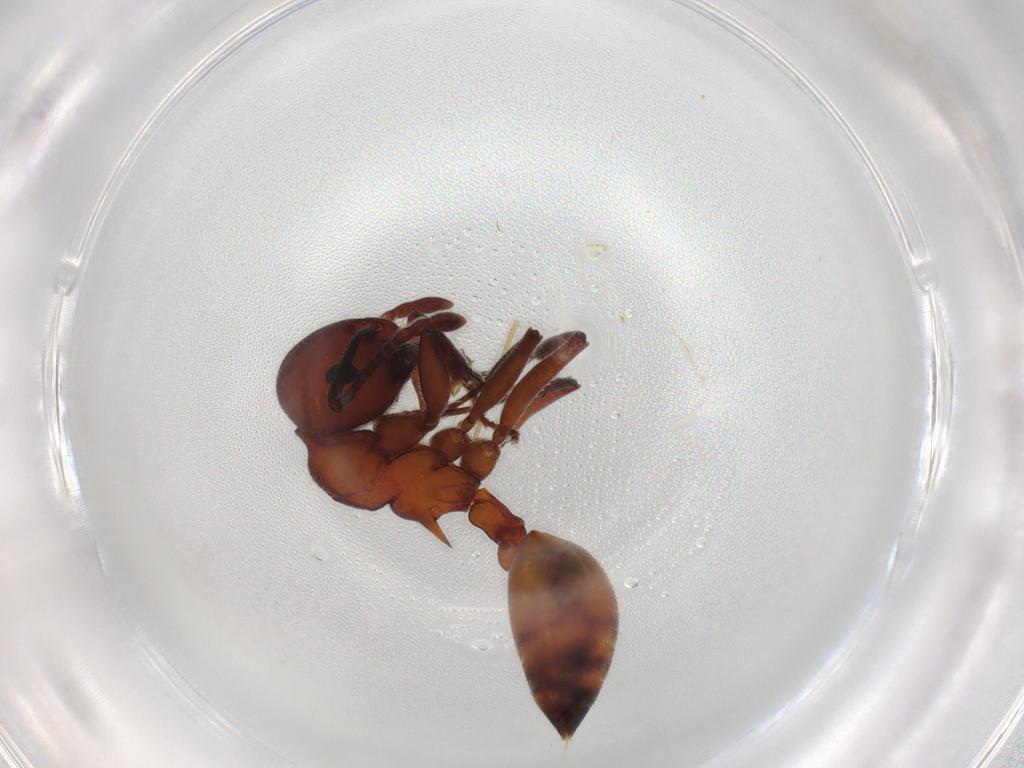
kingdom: Animalia
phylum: Arthropoda
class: Insecta
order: Hymenoptera
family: Formicidae
